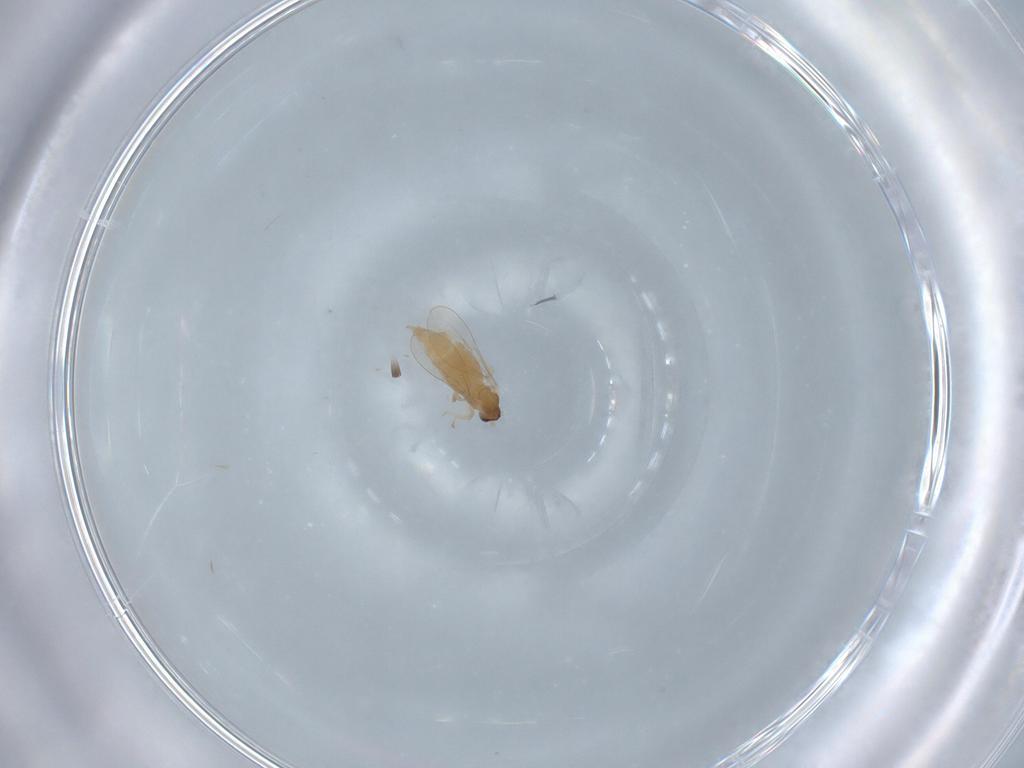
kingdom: Animalia
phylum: Arthropoda
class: Insecta
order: Diptera
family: Cecidomyiidae
